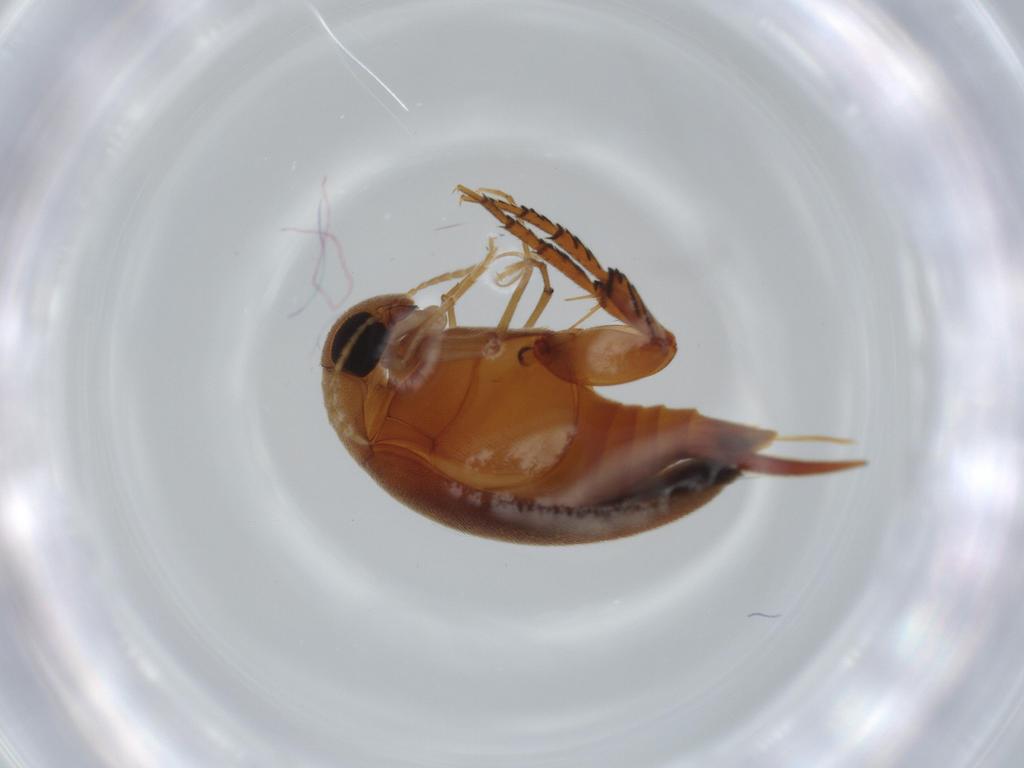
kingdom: Animalia
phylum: Arthropoda
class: Insecta
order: Coleoptera
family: Mordellidae
